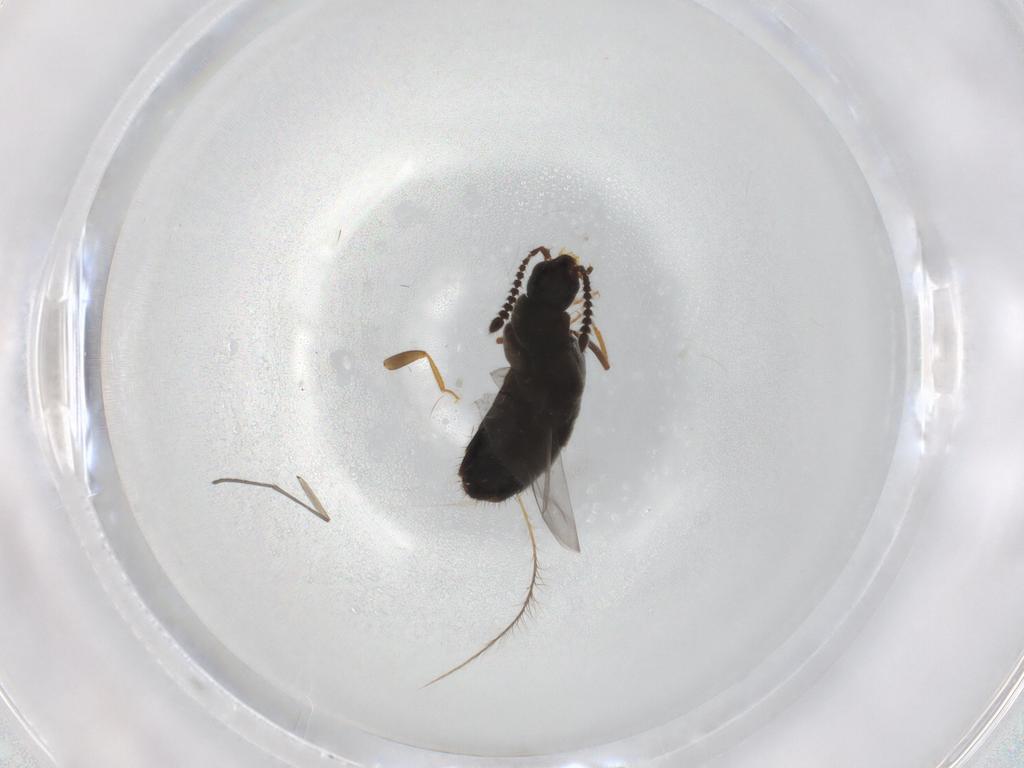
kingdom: Animalia
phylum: Arthropoda
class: Insecta
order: Coleoptera
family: Staphylinidae
